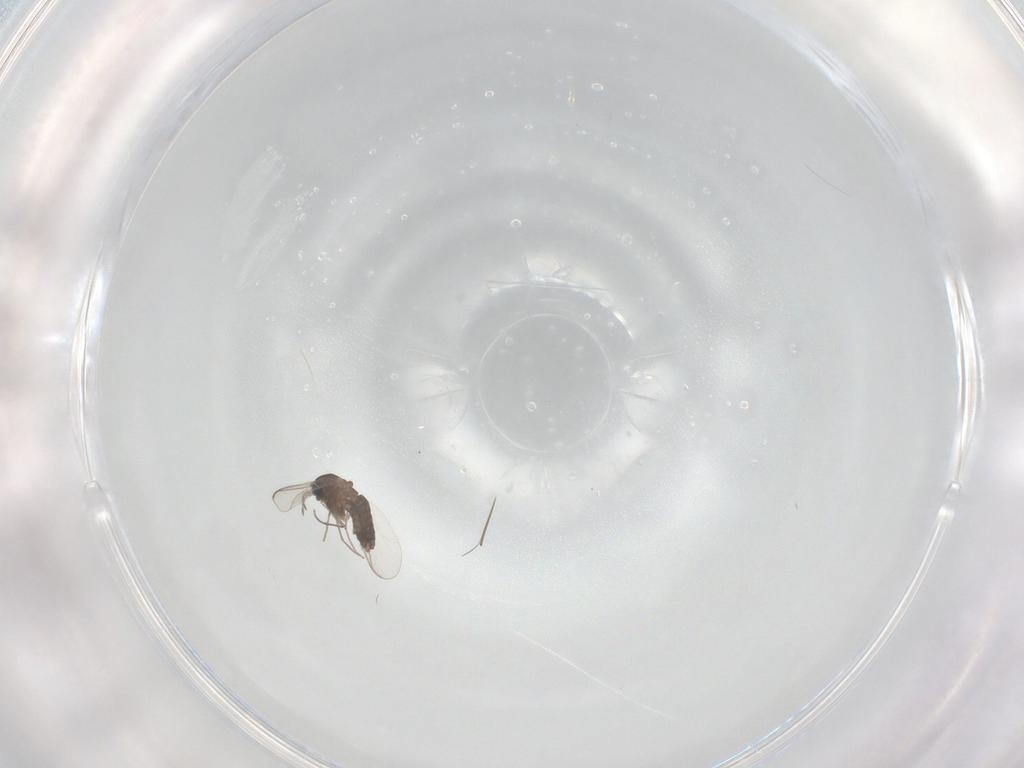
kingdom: Animalia
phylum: Arthropoda
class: Insecta
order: Diptera
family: Chironomidae
